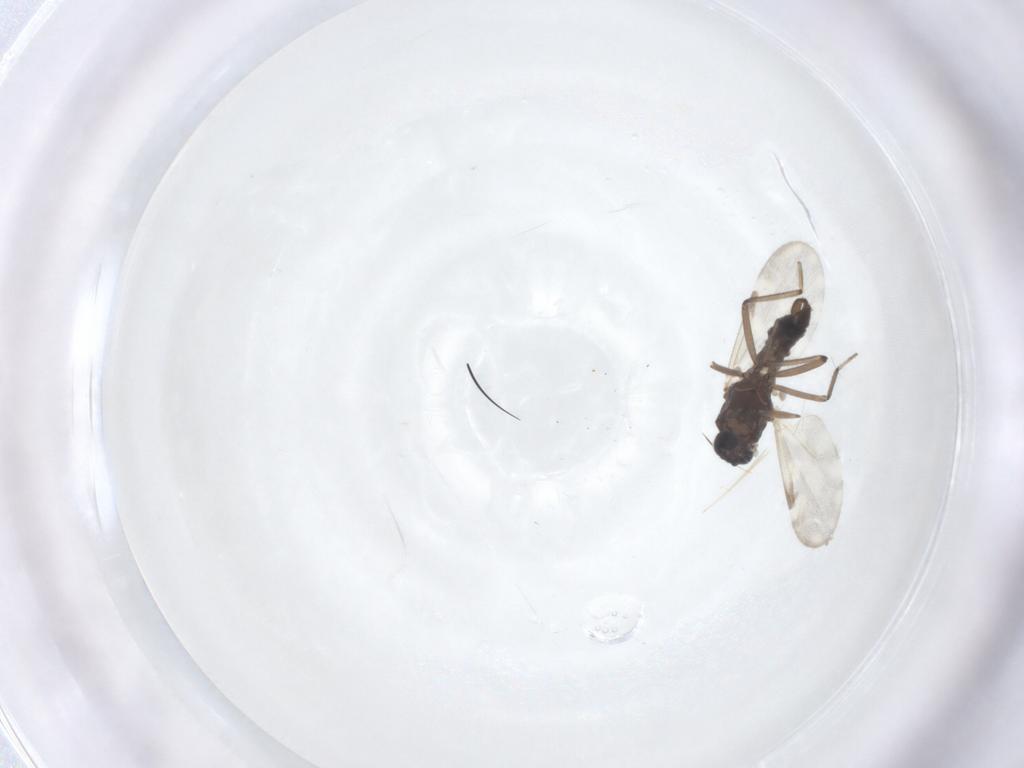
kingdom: Animalia
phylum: Arthropoda
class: Insecta
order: Diptera
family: Ceratopogonidae
